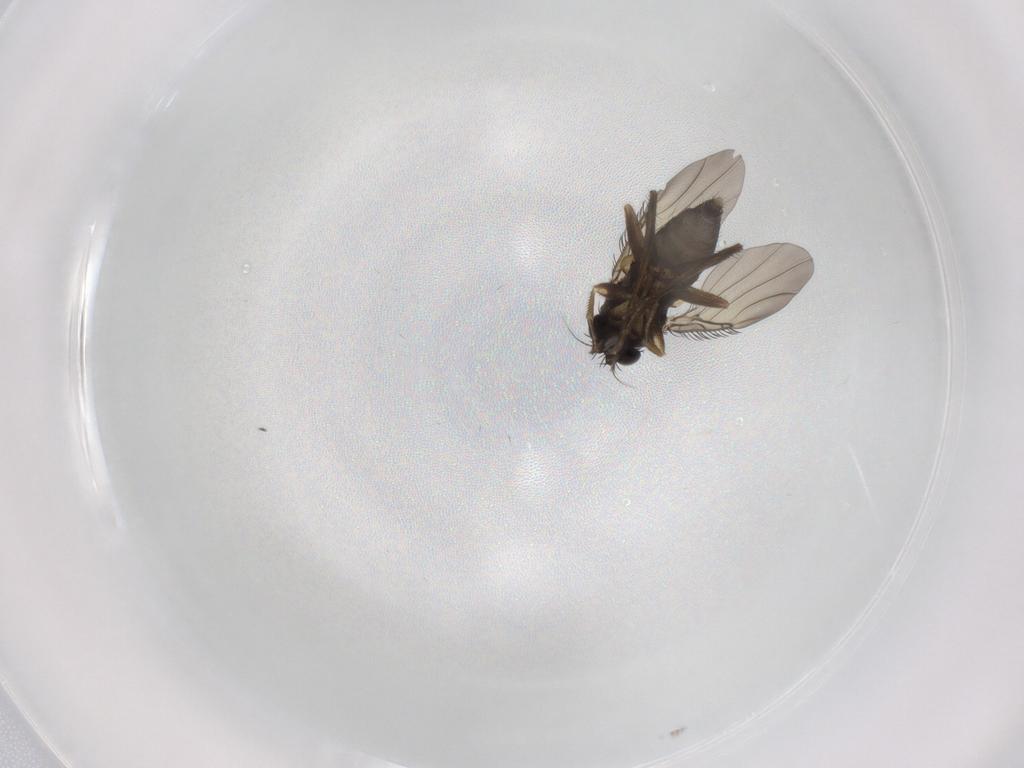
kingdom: Animalia
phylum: Arthropoda
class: Insecta
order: Diptera
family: Phoridae
